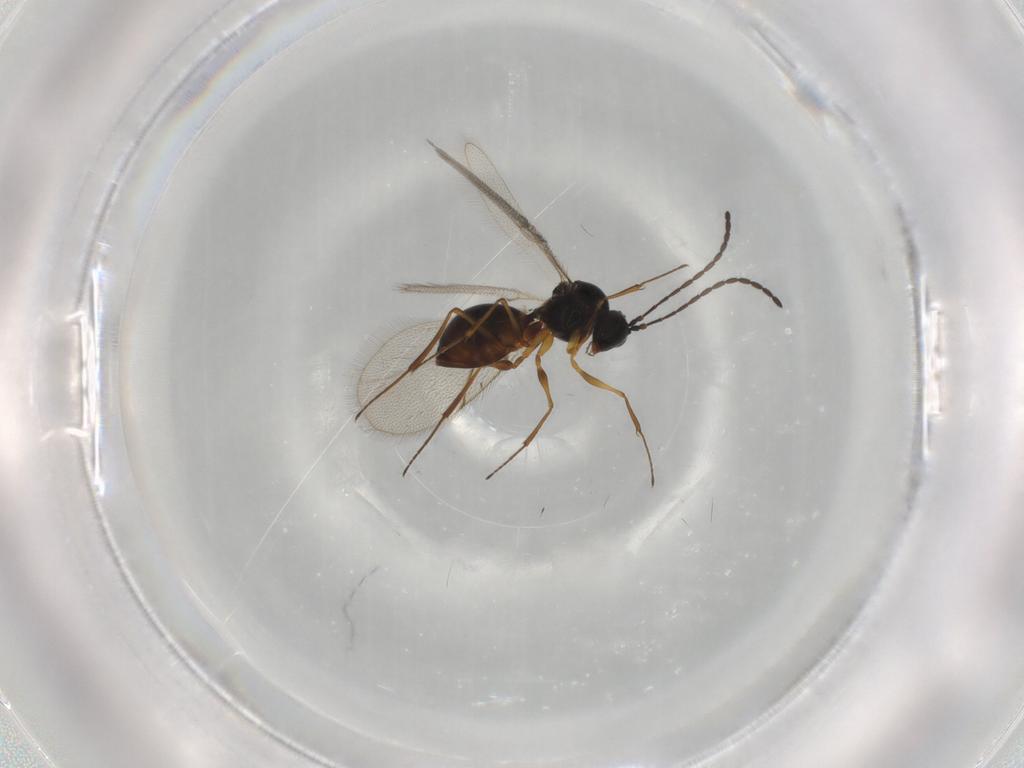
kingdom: Animalia
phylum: Arthropoda
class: Insecta
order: Hymenoptera
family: Figitidae
